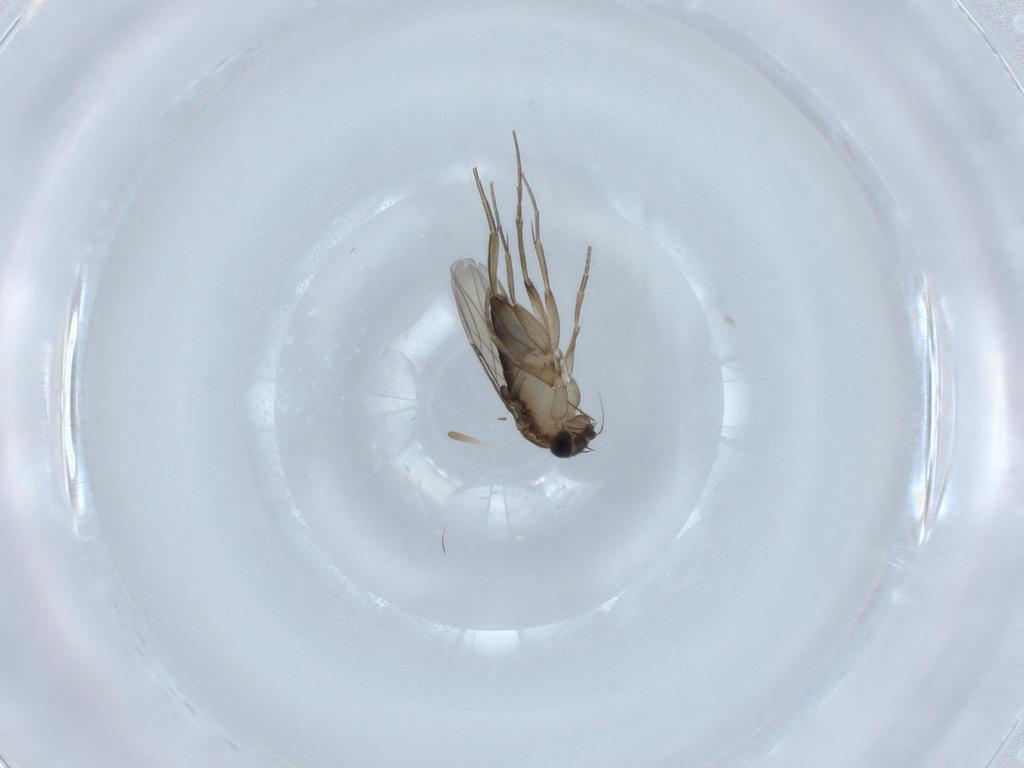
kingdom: Animalia
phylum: Arthropoda
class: Insecta
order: Diptera
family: Phoridae
